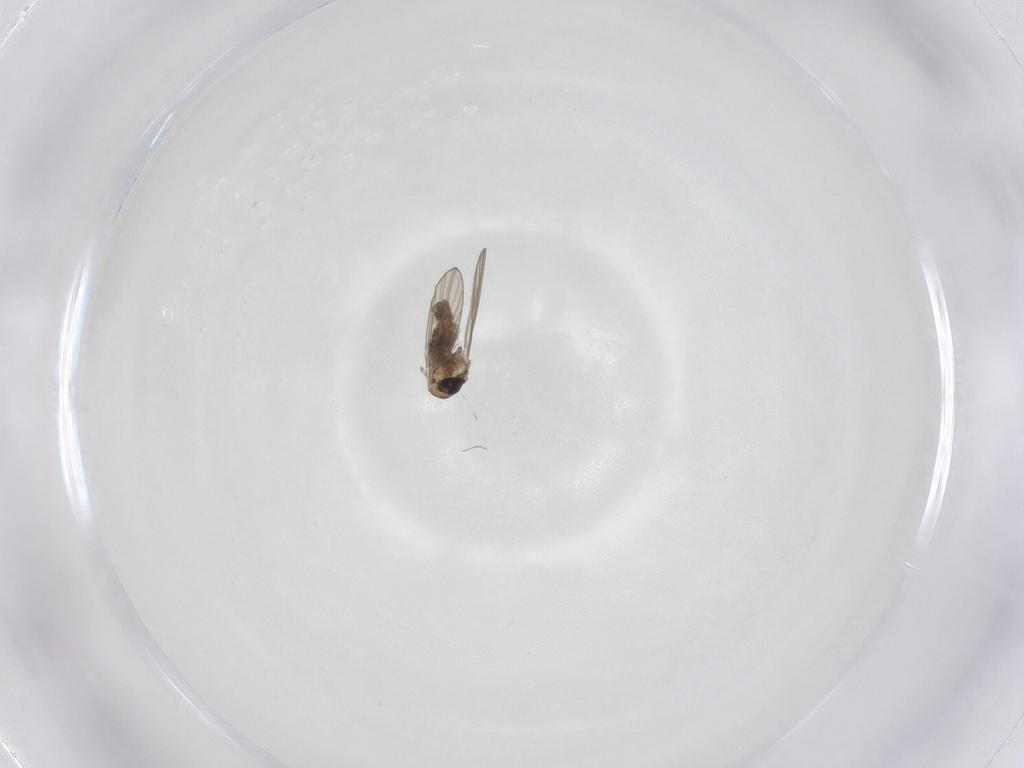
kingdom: Animalia
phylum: Arthropoda
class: Insecta
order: Diptera
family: Psychodidae
